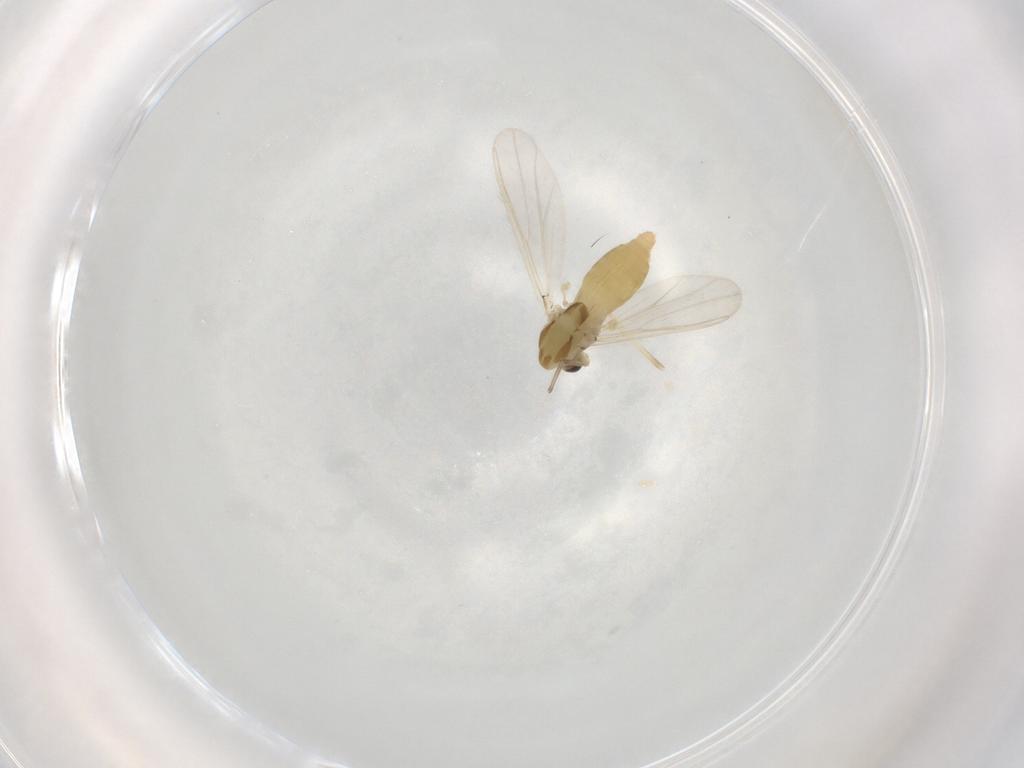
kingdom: Animalia
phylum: Arthropoda
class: Insecta
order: Diptera
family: Chironomidae
